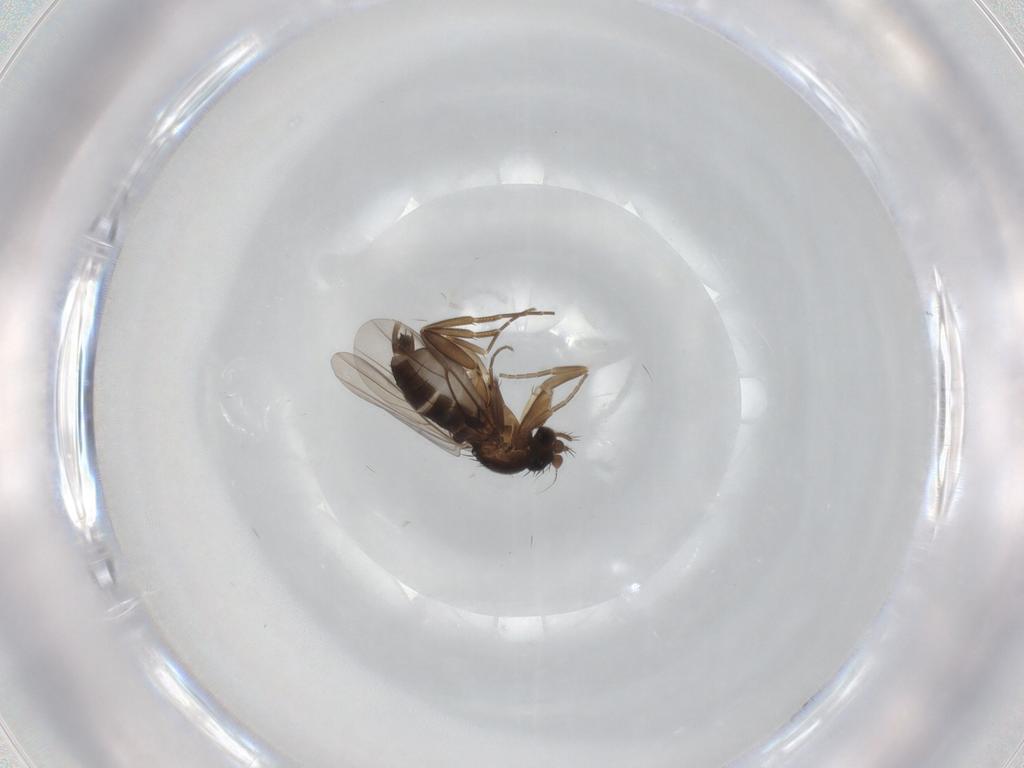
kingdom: Animalia
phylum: Arthropoda
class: Insecta
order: Diptera
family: Phoridae
